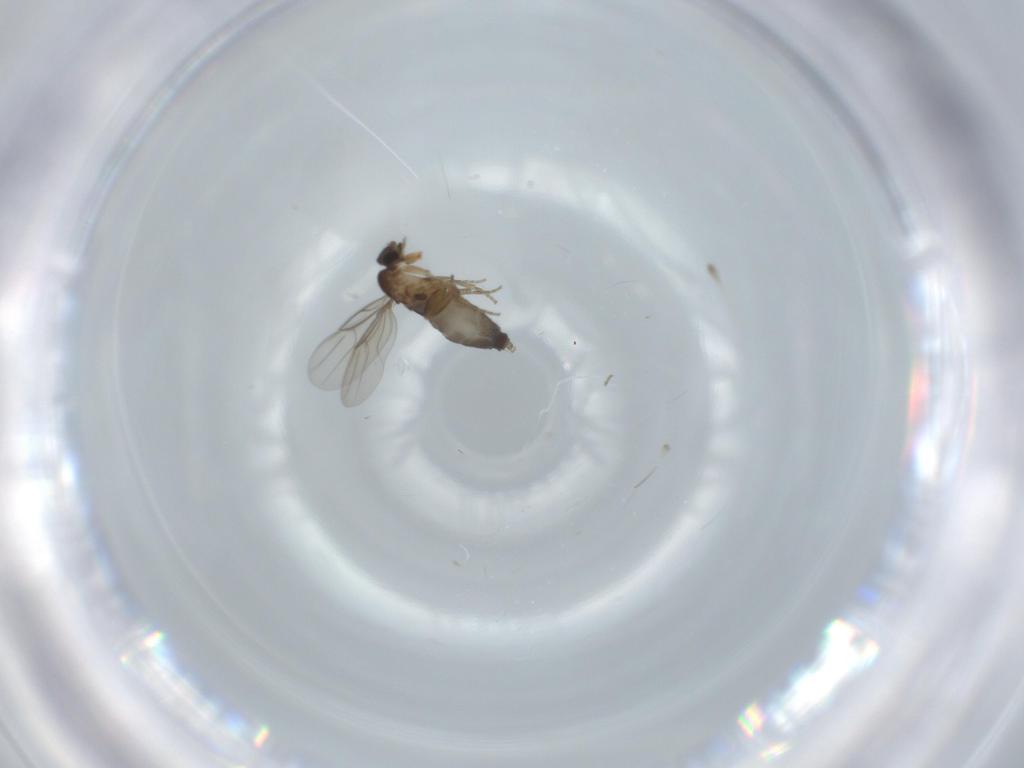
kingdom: Animalia
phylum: Arthropoda
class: Insecta
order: Diptera
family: Phoridae
